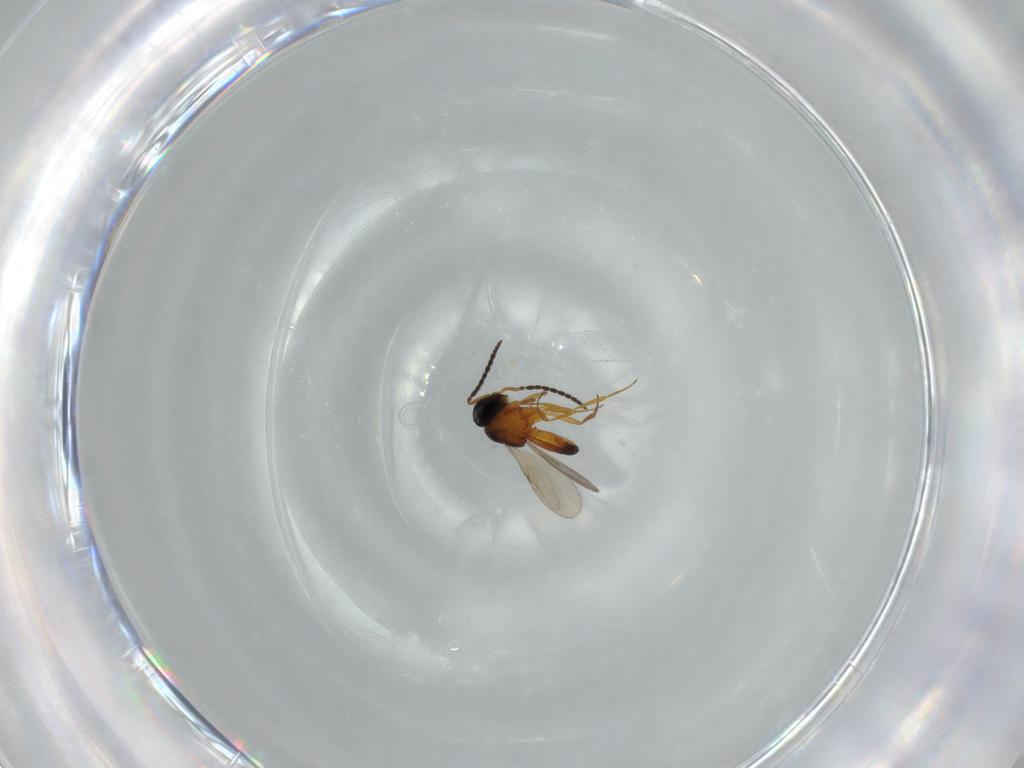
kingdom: Animalia
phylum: Arthropoda
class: Insecta
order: Hymenoptera
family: Scelionidae
